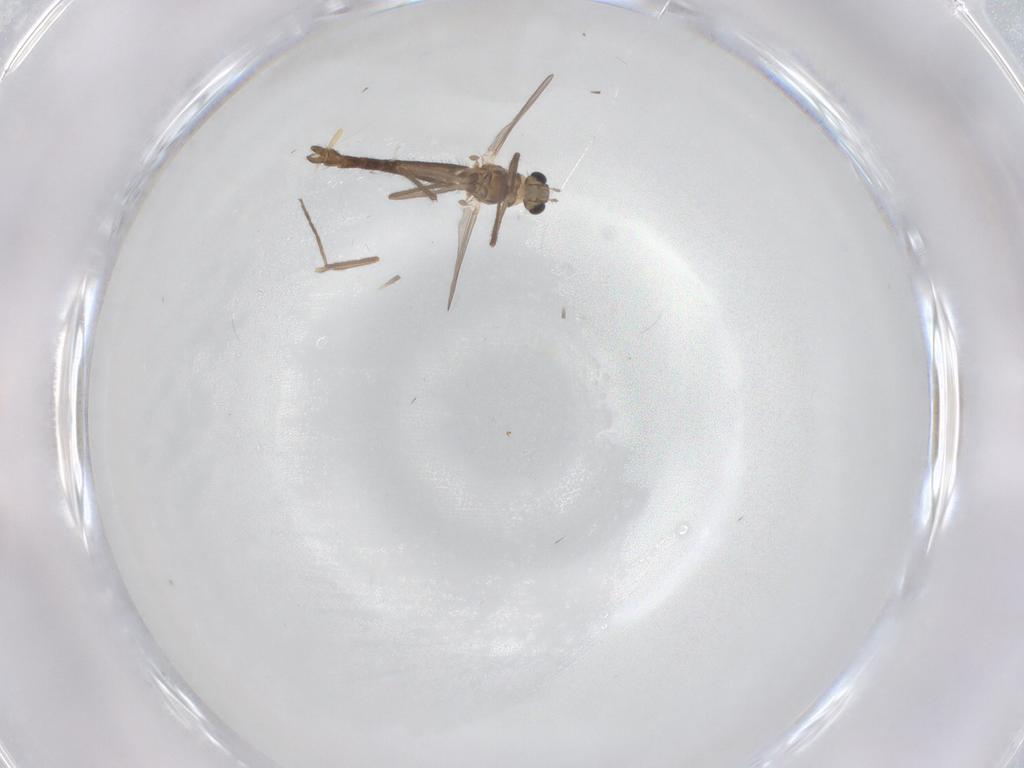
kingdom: Animalia
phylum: Arthropoda
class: Insecta
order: Diptera
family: Chironomidae
